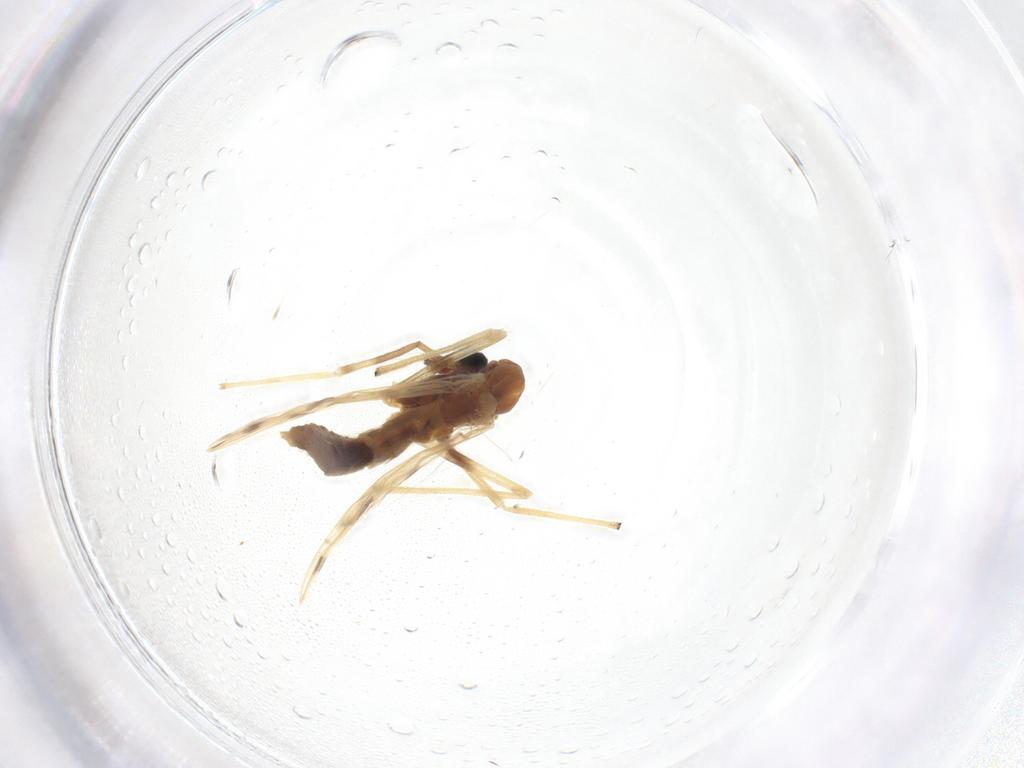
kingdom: Animalia
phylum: Arthropoda
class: Insecta
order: Diptera
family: Chironomidae
